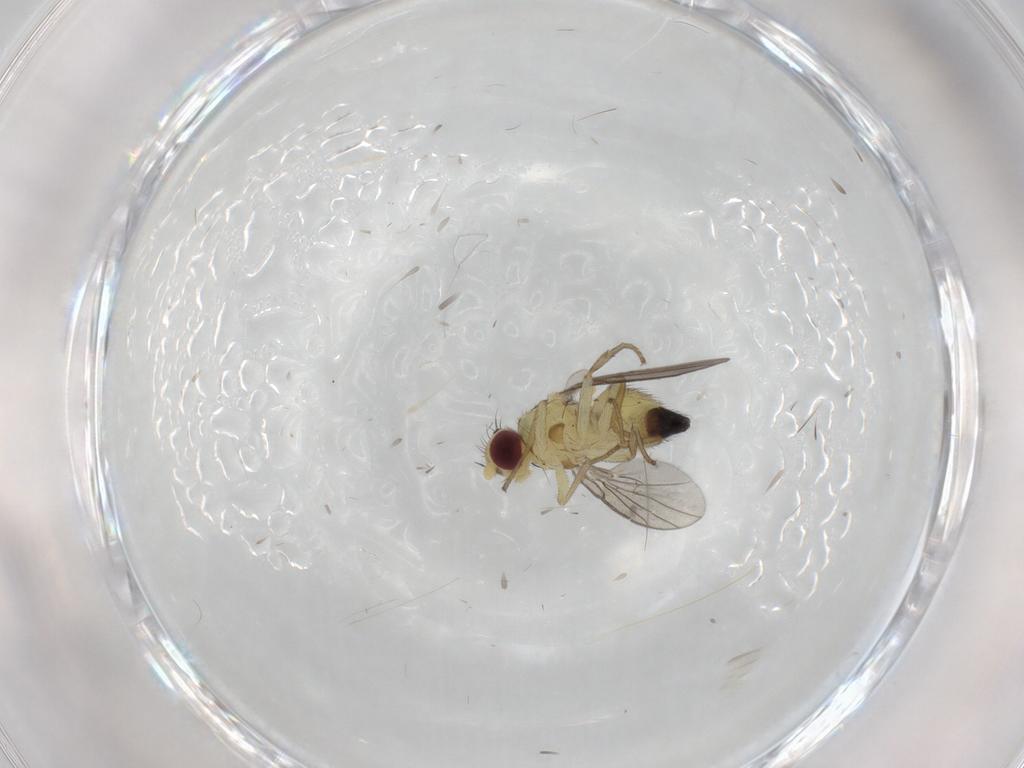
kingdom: Animalia
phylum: Arthropoda
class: Insecta
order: Diptera
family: Agromyzidae
